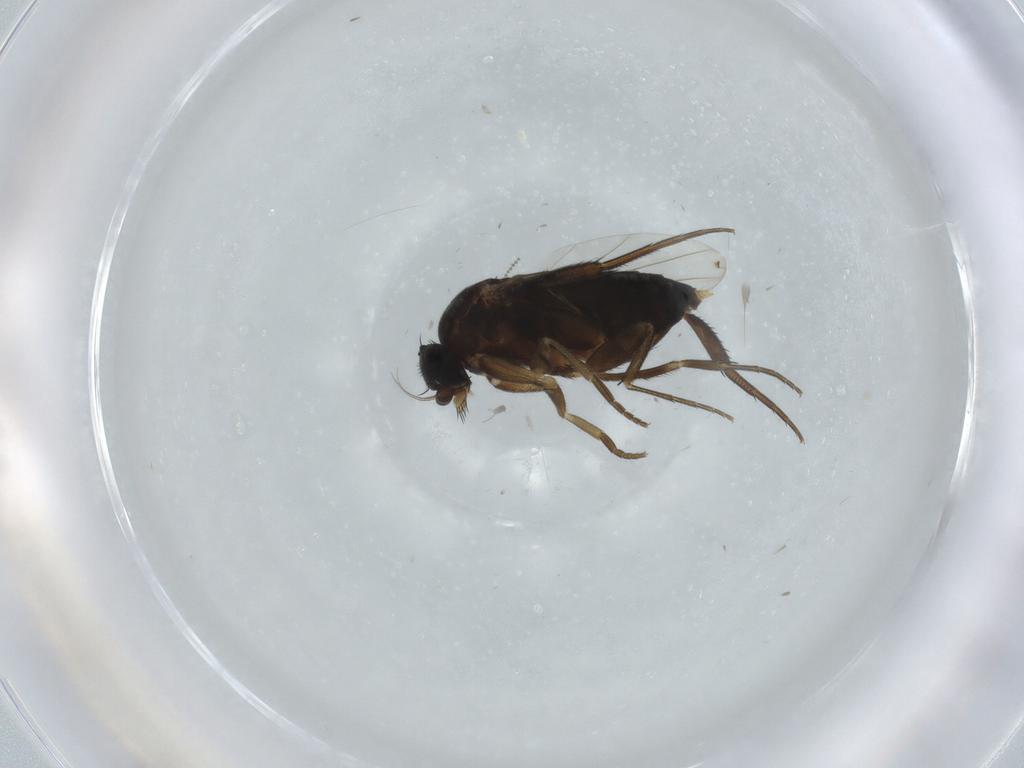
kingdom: Animalia
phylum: Arthropoda
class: Insecta
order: Diptera
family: Phoridae
